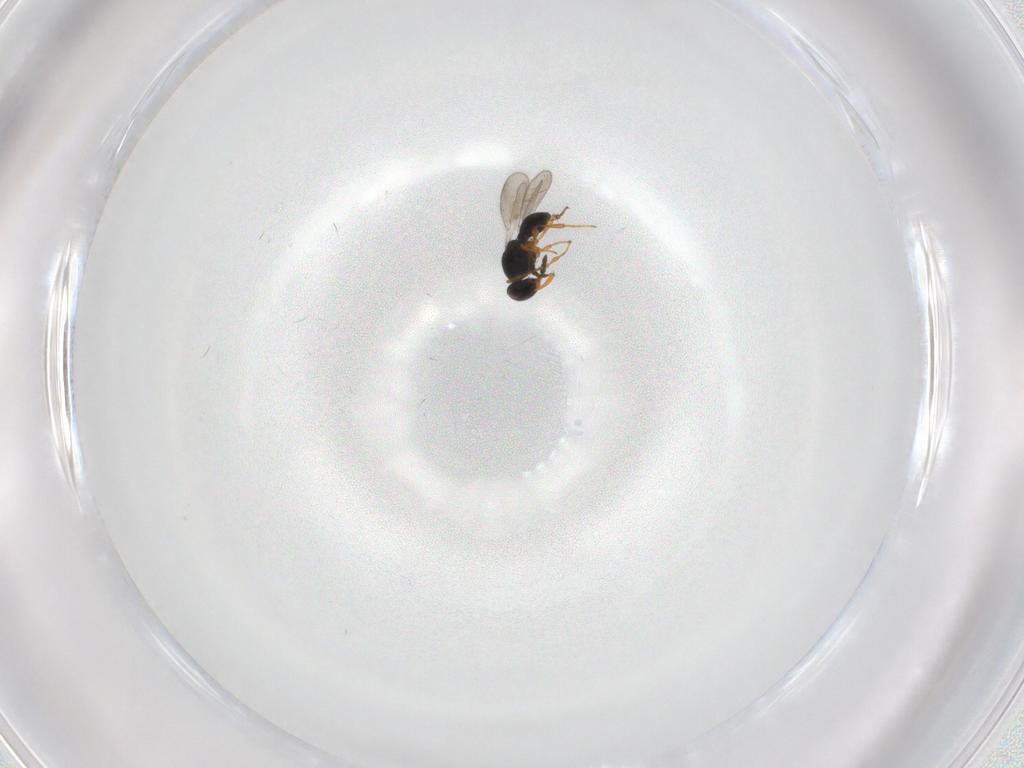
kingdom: Animalia
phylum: Arthropoda
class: Insecta
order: Hymenoptera
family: Platygastridae
